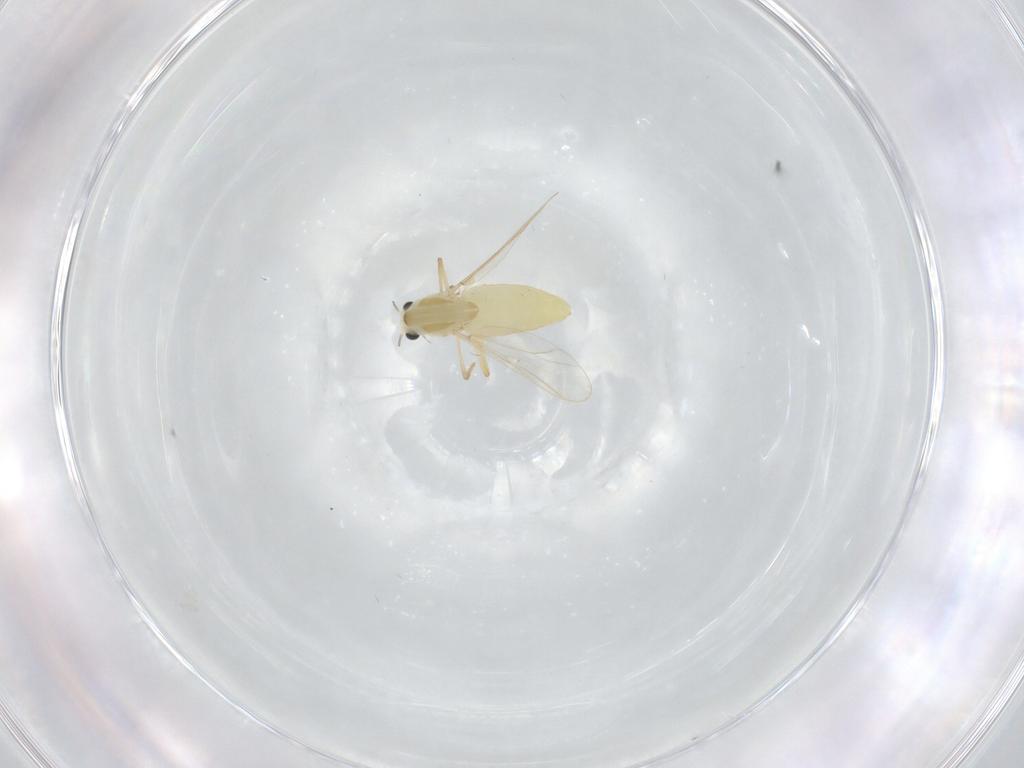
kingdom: Animalia
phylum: Arthropoda
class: Insecta
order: Diptera
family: Chironomidae
